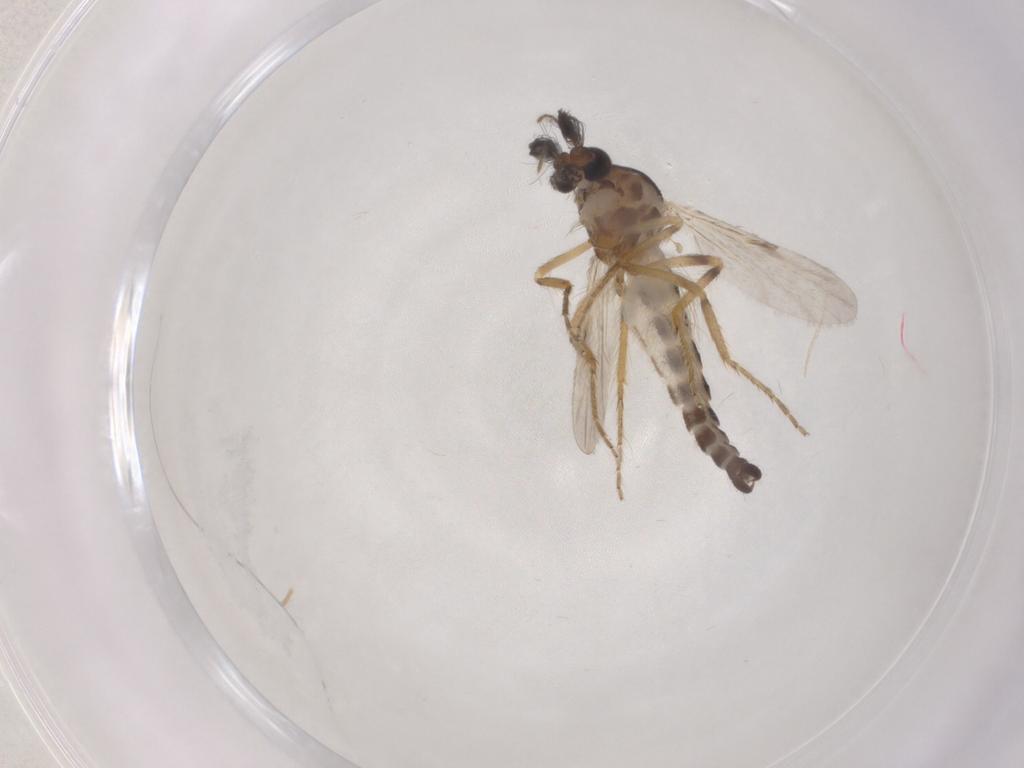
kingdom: Animalia
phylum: Arthropoda
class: Insecta
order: Diptera
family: Ceratopogonidae
